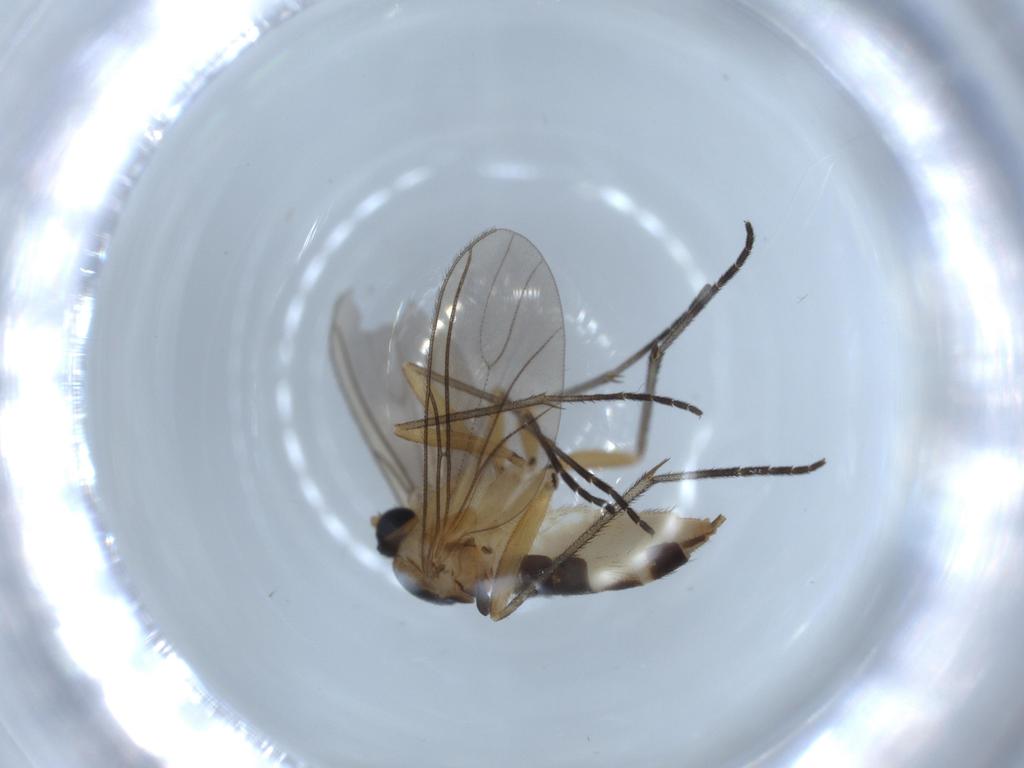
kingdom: Animalia
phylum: Arthropoda
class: Insecta
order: Diptera
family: Sciaridae
